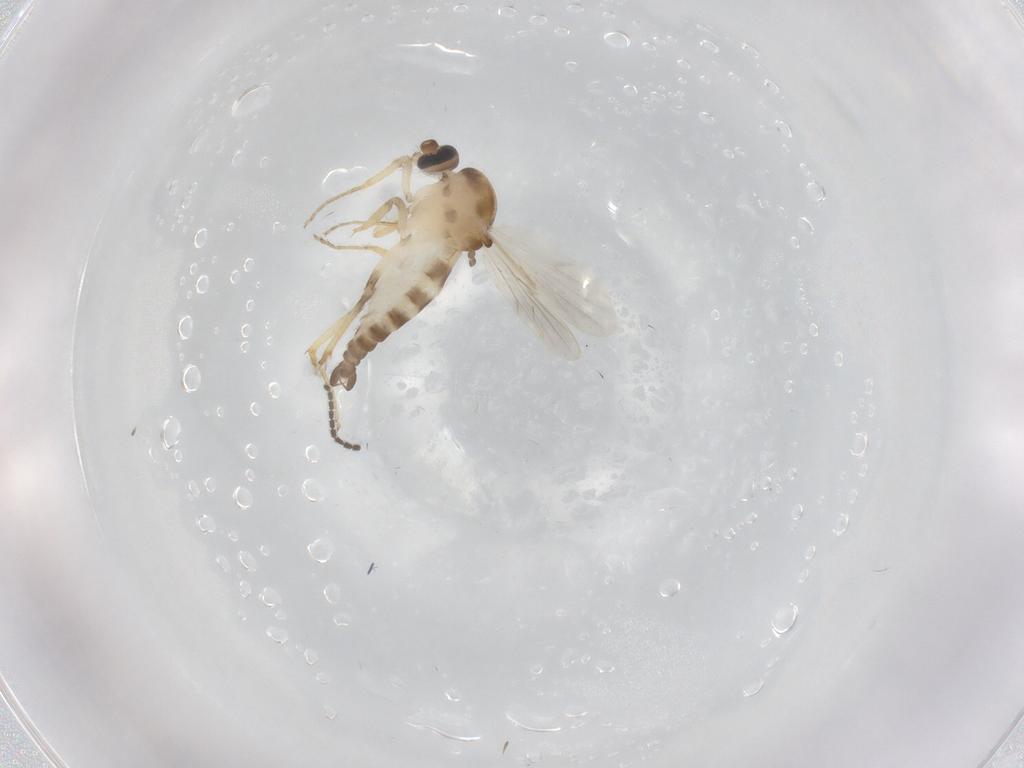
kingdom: Animalia
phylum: Arthropoda
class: Insecta
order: Diptera
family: Ceratopogonidae
